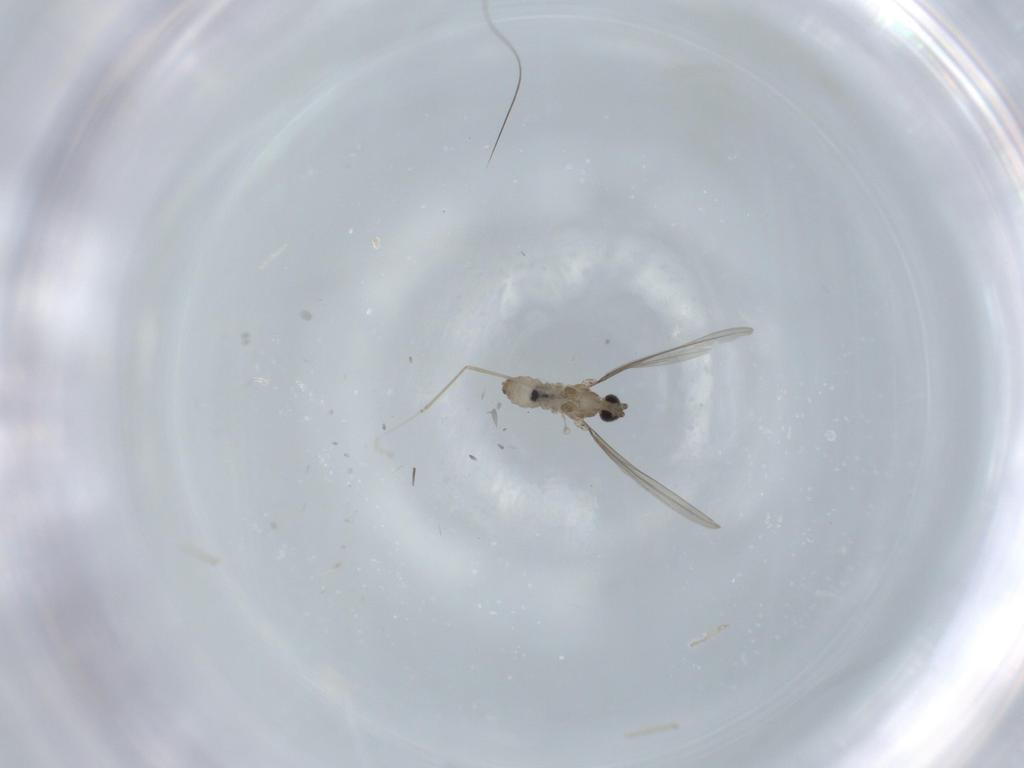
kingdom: Animalia
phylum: Arthropoda
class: Insecta
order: Diptera
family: Cecidomyiidae
